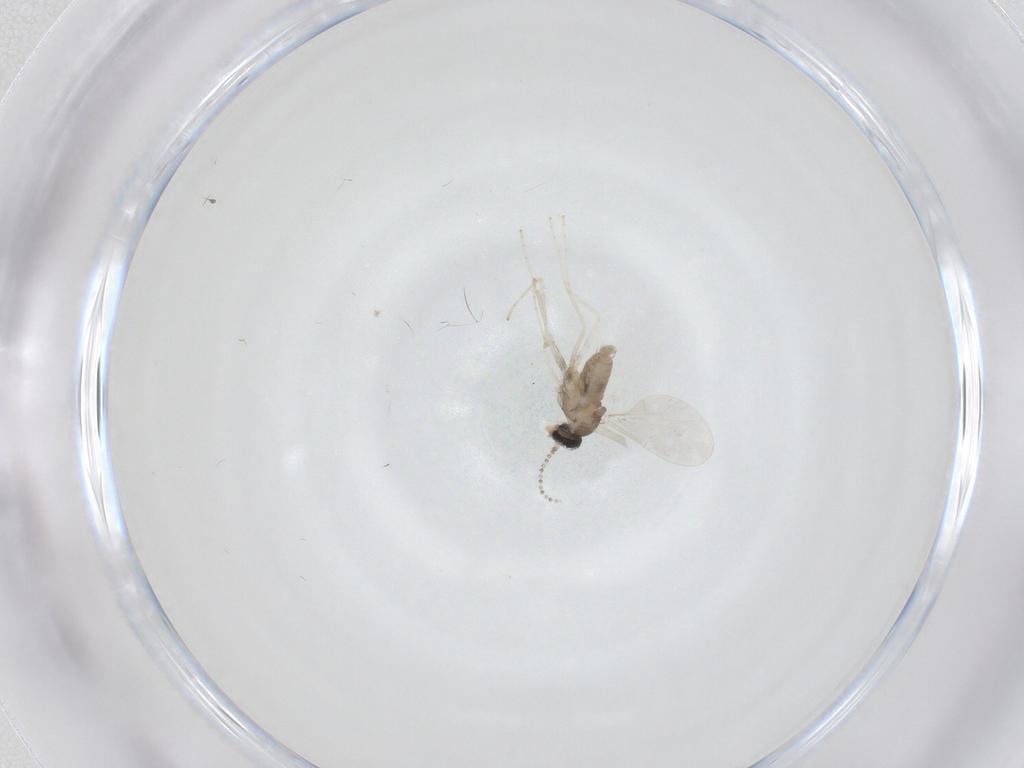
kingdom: Animalia
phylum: Arthropoda
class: Insecta
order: Diptera
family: Cecidomyiidae
